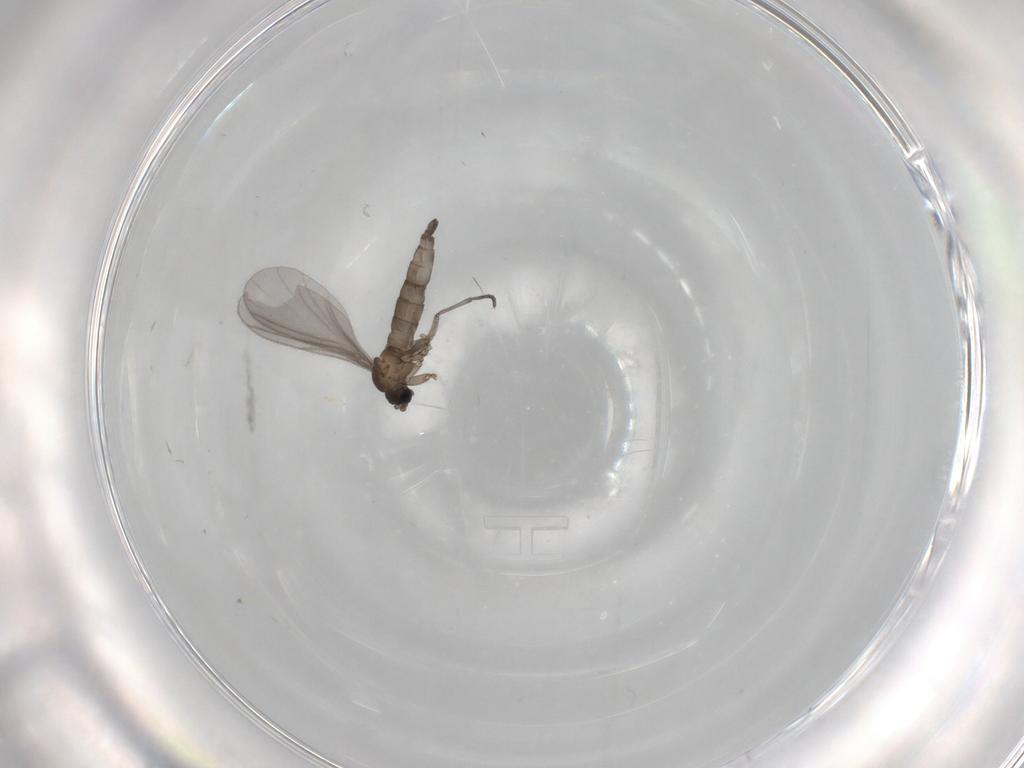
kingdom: Animalia
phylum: Arthropoda
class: Insecta
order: Diptera
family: Sciaridae
